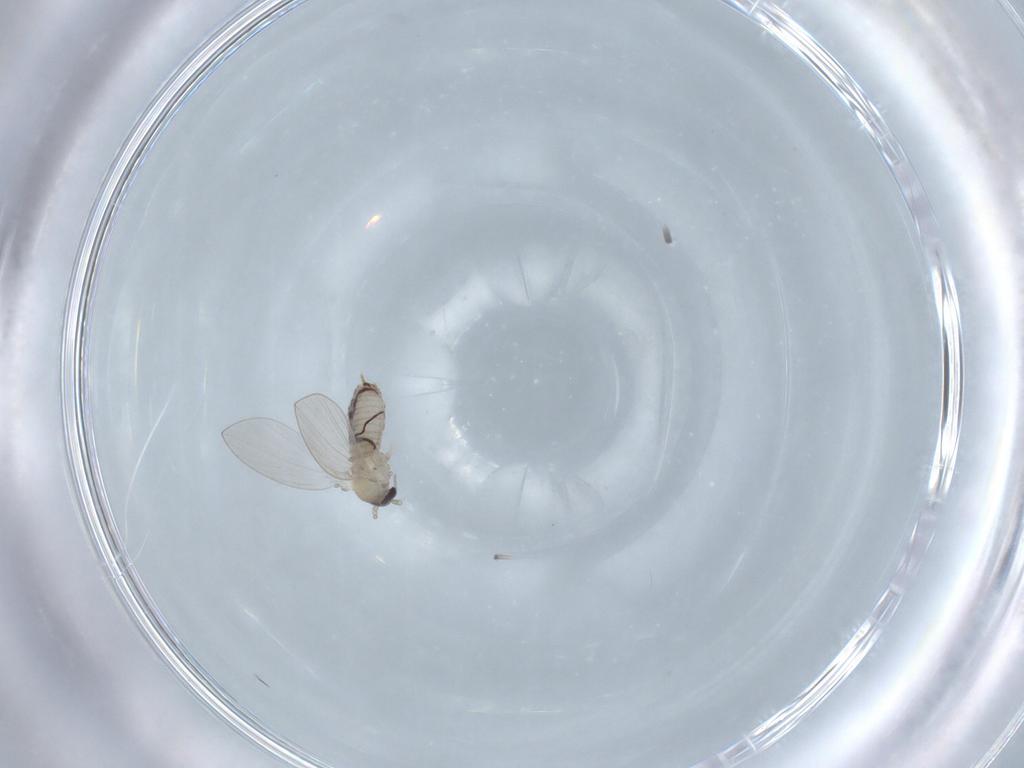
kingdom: Animalia
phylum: Arthropoda
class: Insecta
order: Diptera
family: Psychodidae
